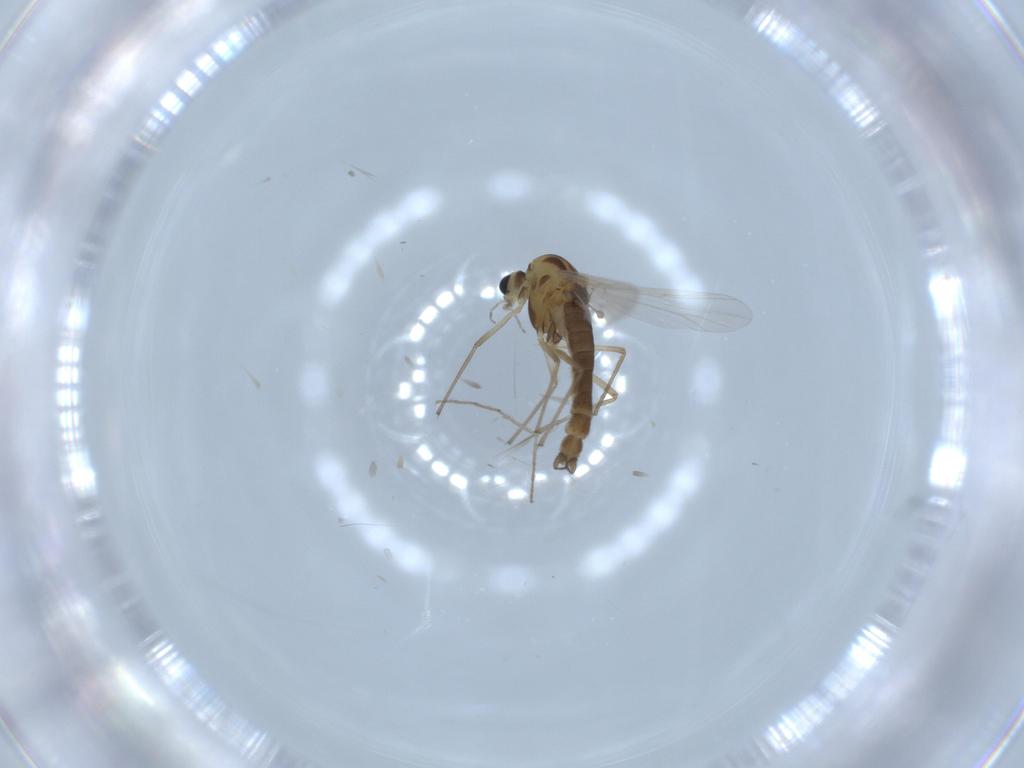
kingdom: Animalia
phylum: Arthropoda
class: Insecta
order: Diptera
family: Chironomidae
